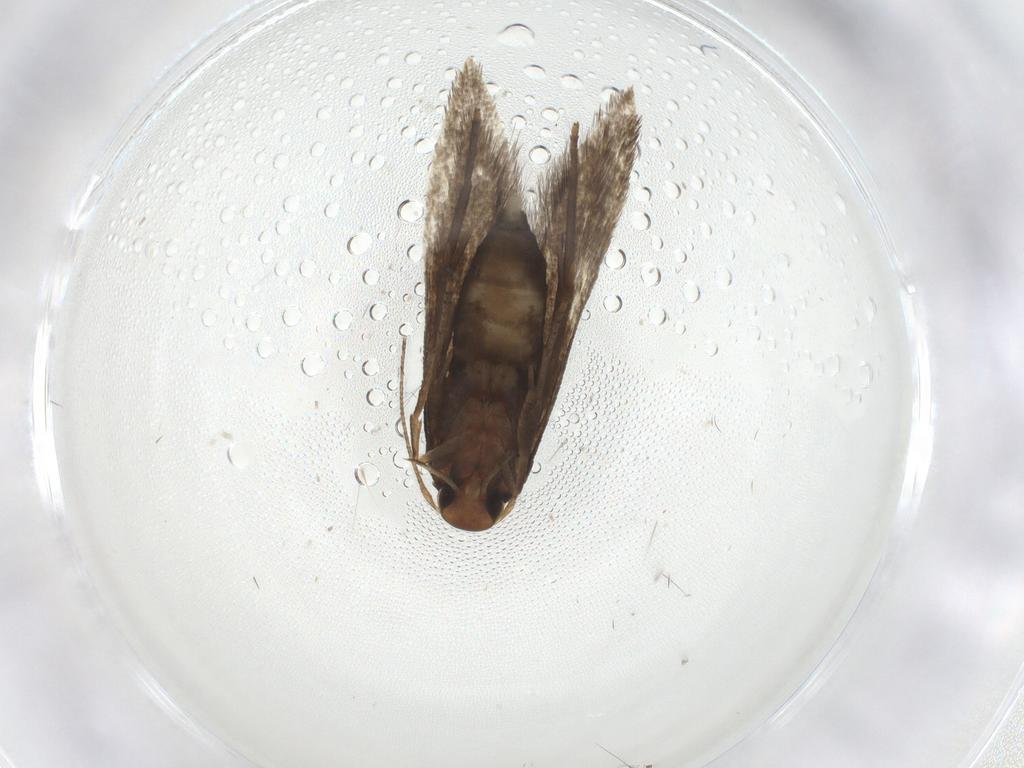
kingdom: Animalia
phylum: Arthropoda
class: Insecta
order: Lepidoptera
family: Crambidae
